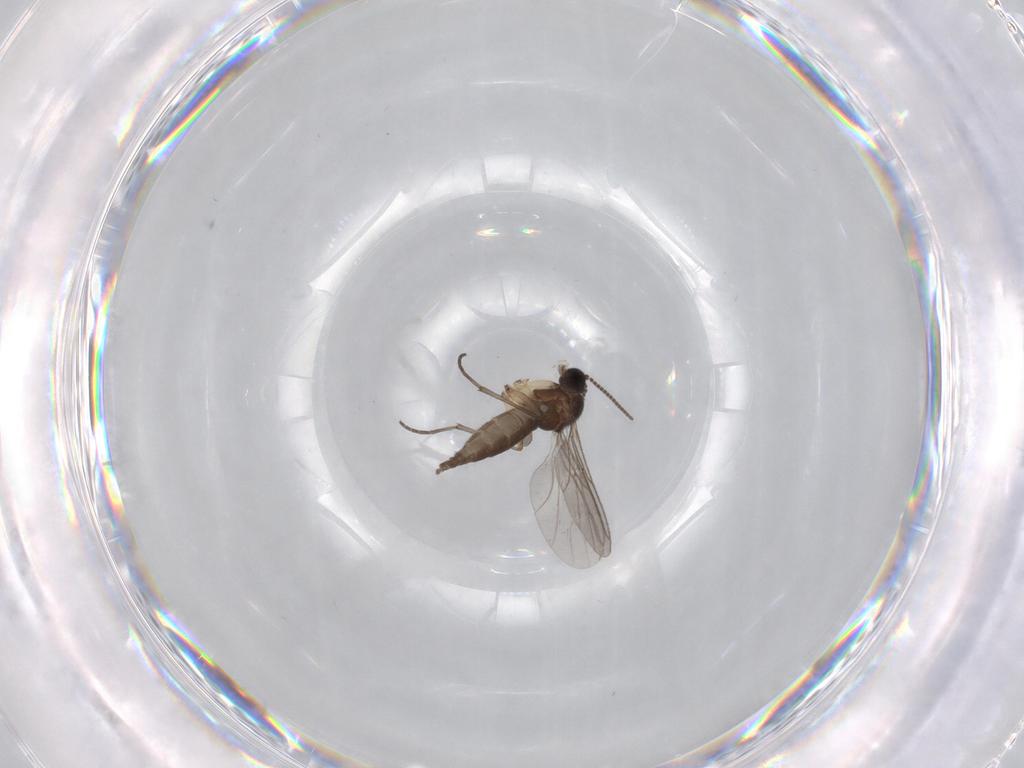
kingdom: Animalia
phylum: Arthropoda
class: Insecta
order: Diptera
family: Sciaridae
